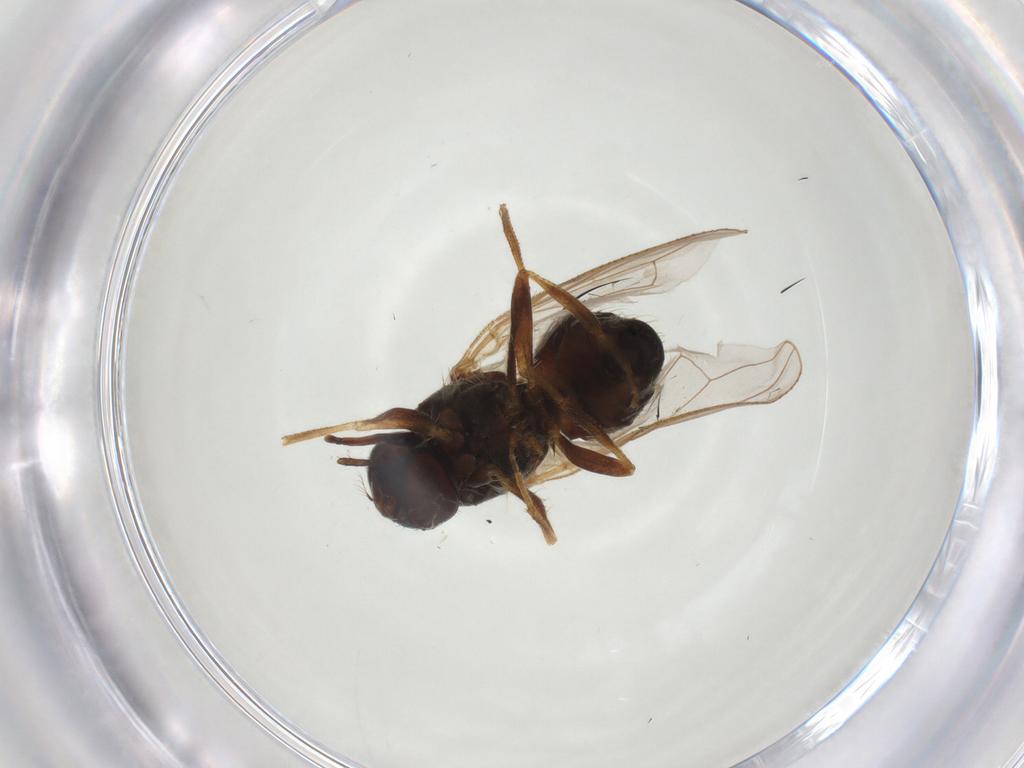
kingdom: Animalia
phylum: Arthropoda
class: Insecta
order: Diptera
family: Muscidae
